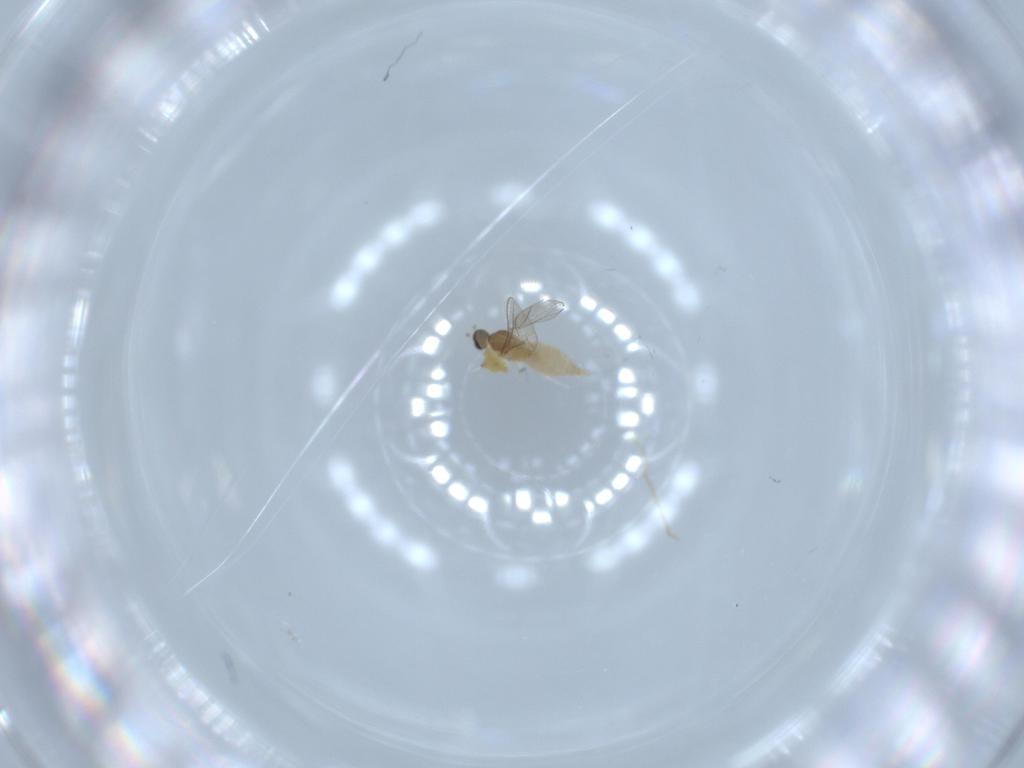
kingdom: Animalia
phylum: Arthropoda
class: Insecta
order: Diptera
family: Cecidomyiidae
